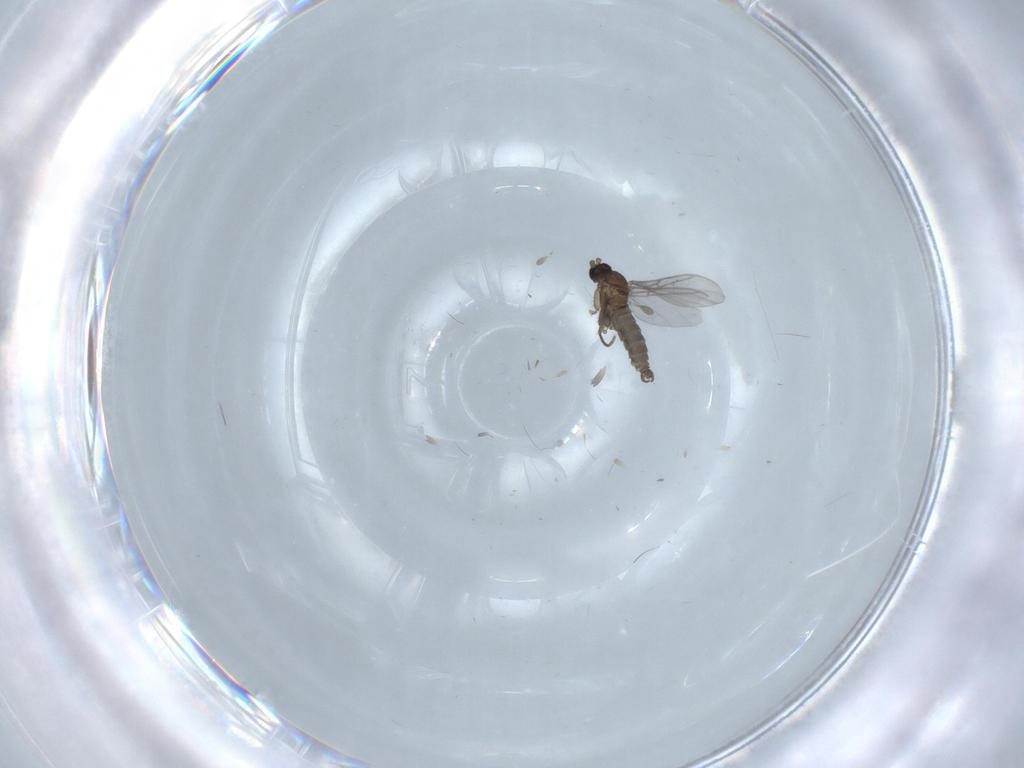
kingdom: Animalia
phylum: Arthropoda
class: Insecta
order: Diptera
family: Sciaridae
